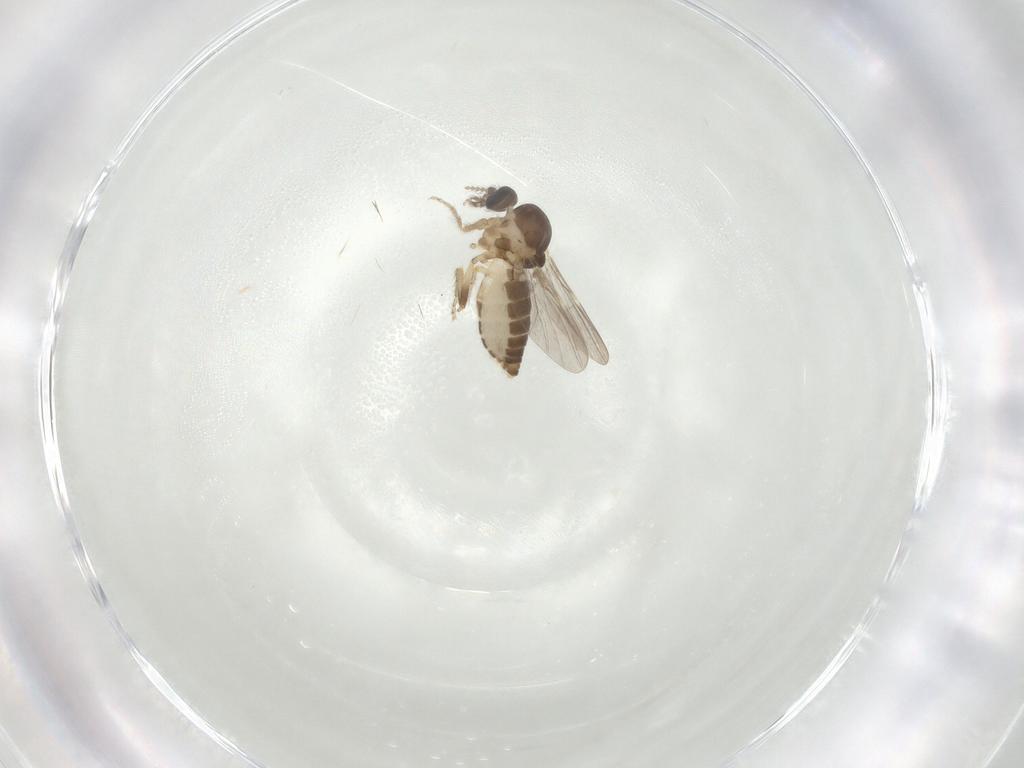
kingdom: Animalia
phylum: Arthropoda
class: Insecta
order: Diptera
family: Ceratopogonidae
